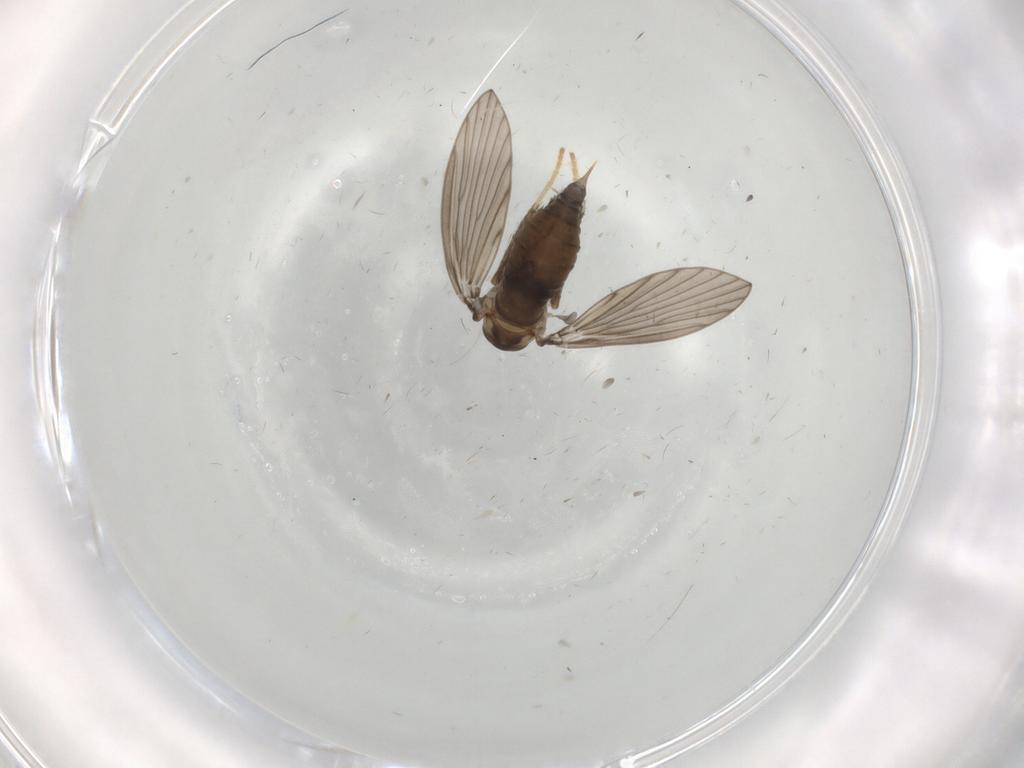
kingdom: Animalia
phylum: Arthropoda
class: Insecta
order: Diptera
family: Psychodidae
